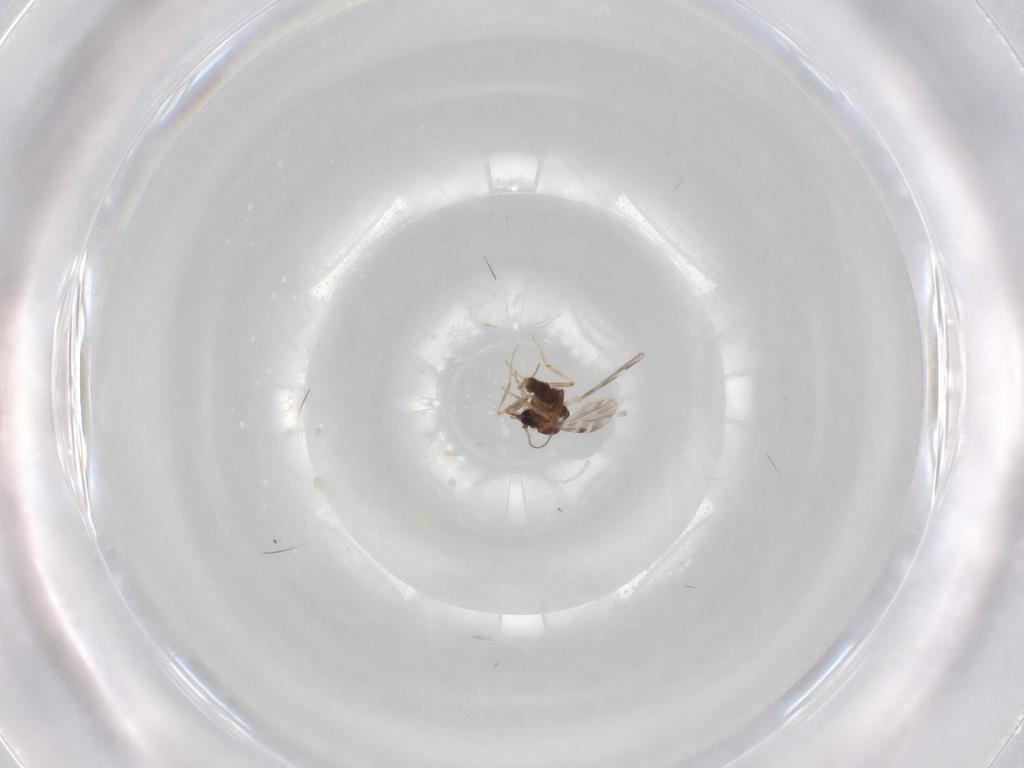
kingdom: Animalia
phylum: Arthropoda
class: Insecta
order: Diptera
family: Cecidomyiidae
